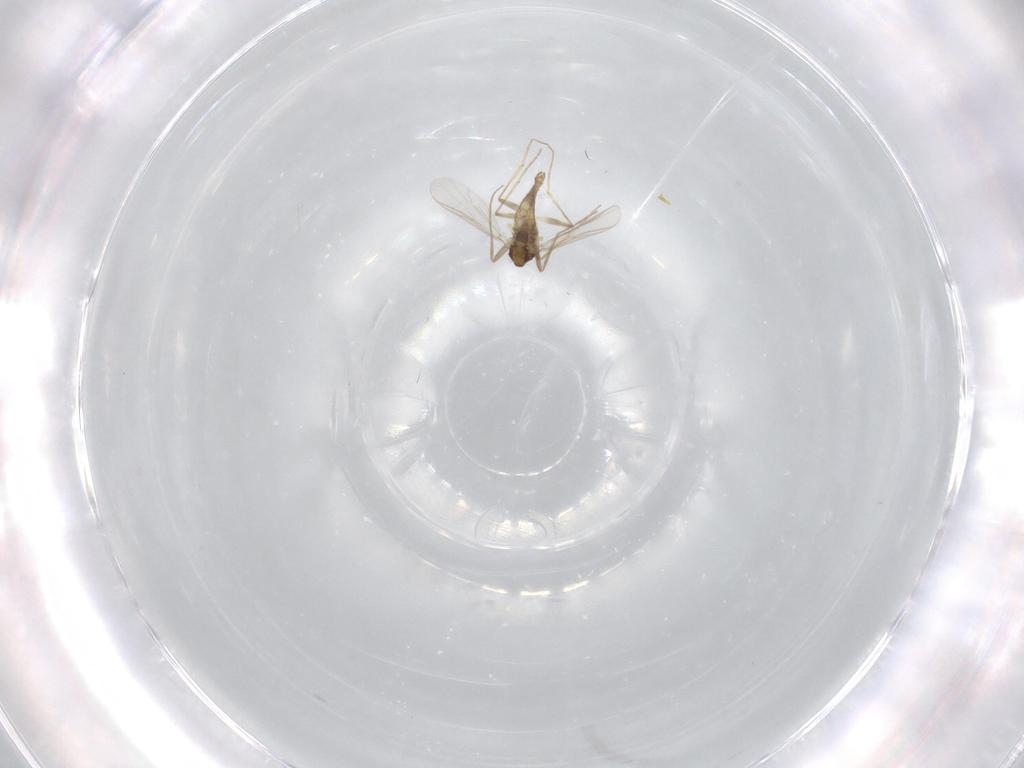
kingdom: Animalia
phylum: Arthropoda
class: Insecta
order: Diptera
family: Chironomidae
